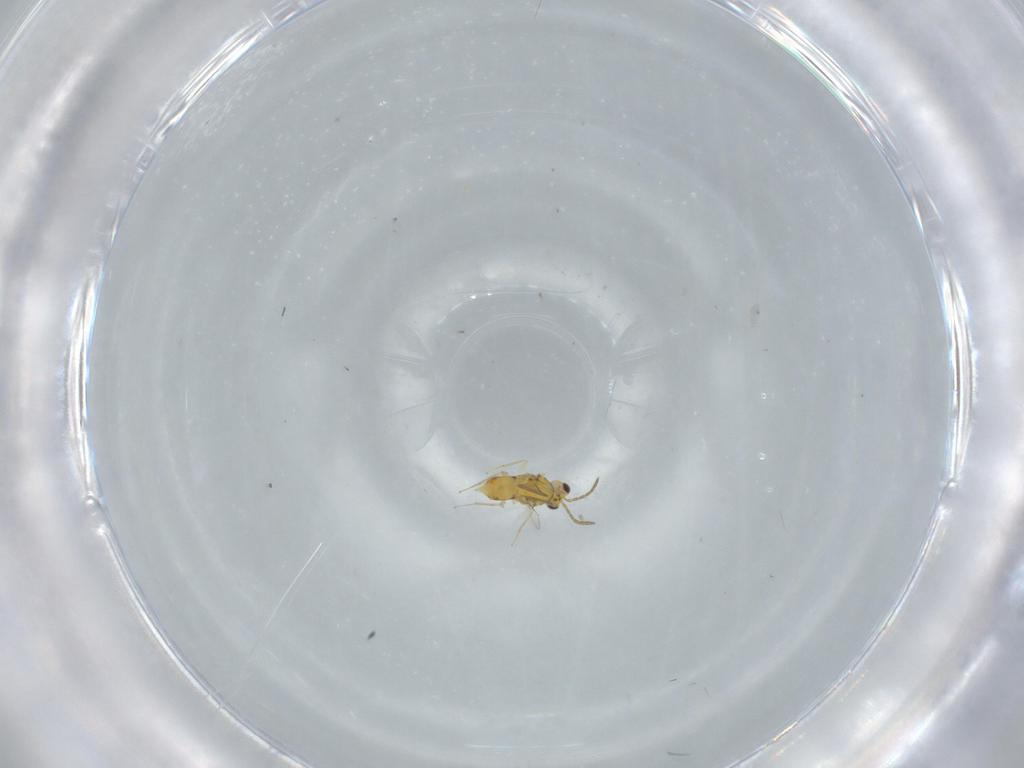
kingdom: Animalia
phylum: Arthropoda
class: Insecta
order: Hymenoptera
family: Aphelinidae
